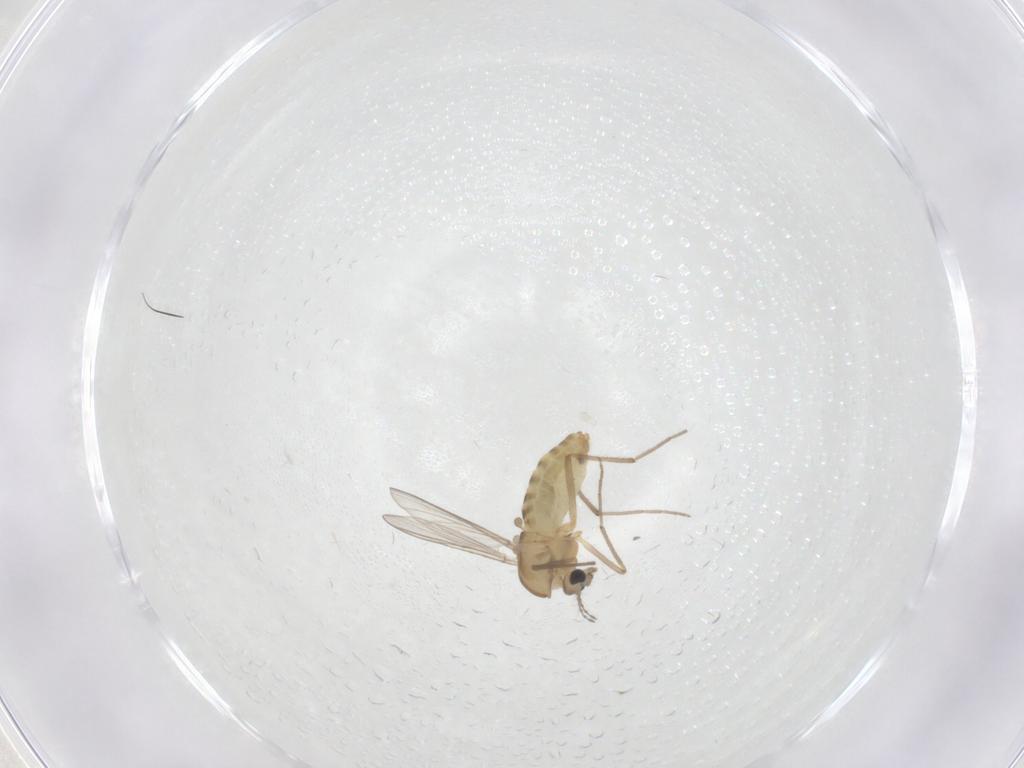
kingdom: Animalia
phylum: Arthropoda
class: Insecta
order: Diptera
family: Chironomidae
